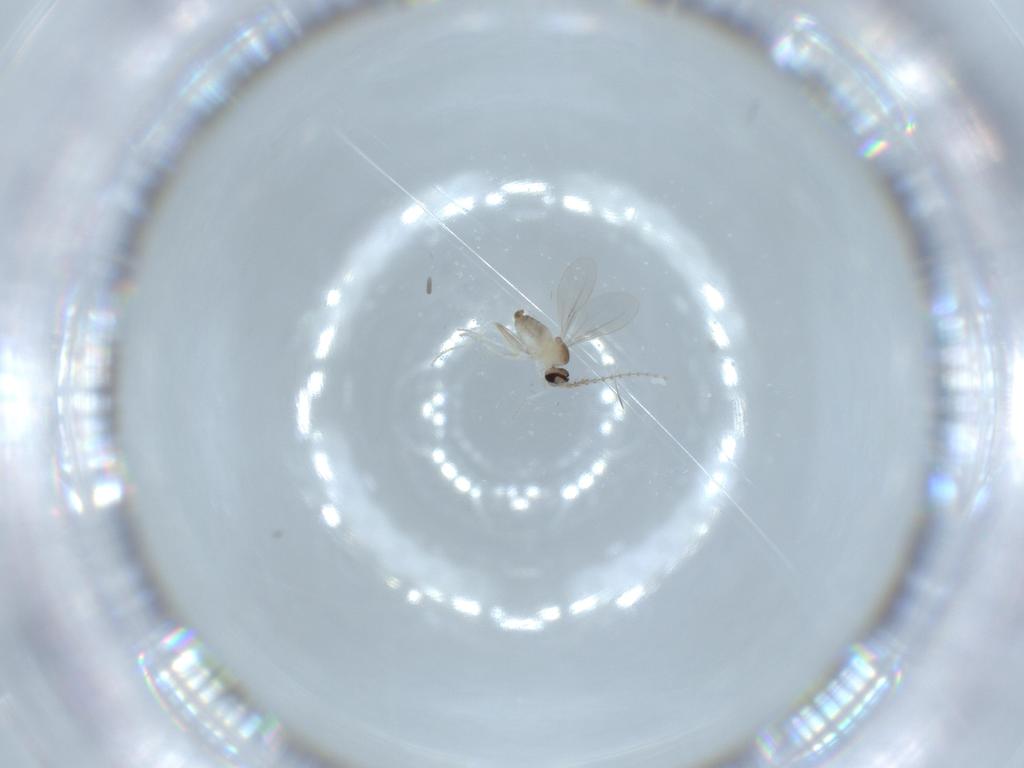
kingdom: Animalia
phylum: Arthropoda
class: Insecta
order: Diptera
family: Cecidomyiidae
